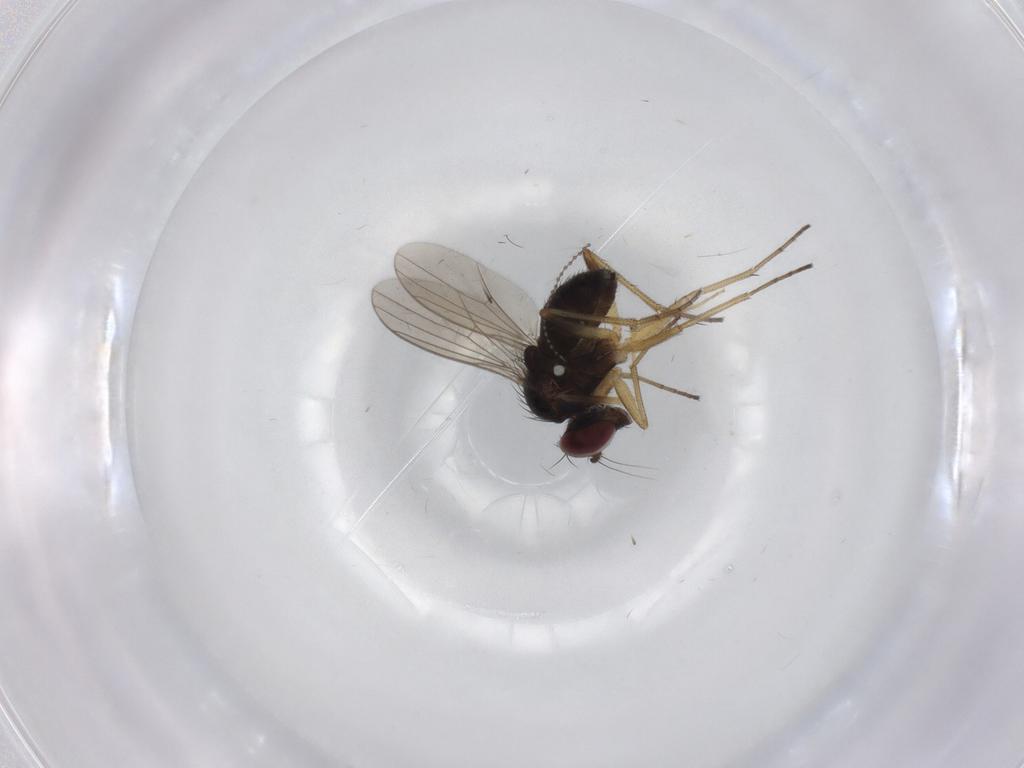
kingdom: Animalia
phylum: Arthropoda
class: Insecta
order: Diptera
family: Dolichopodidae
